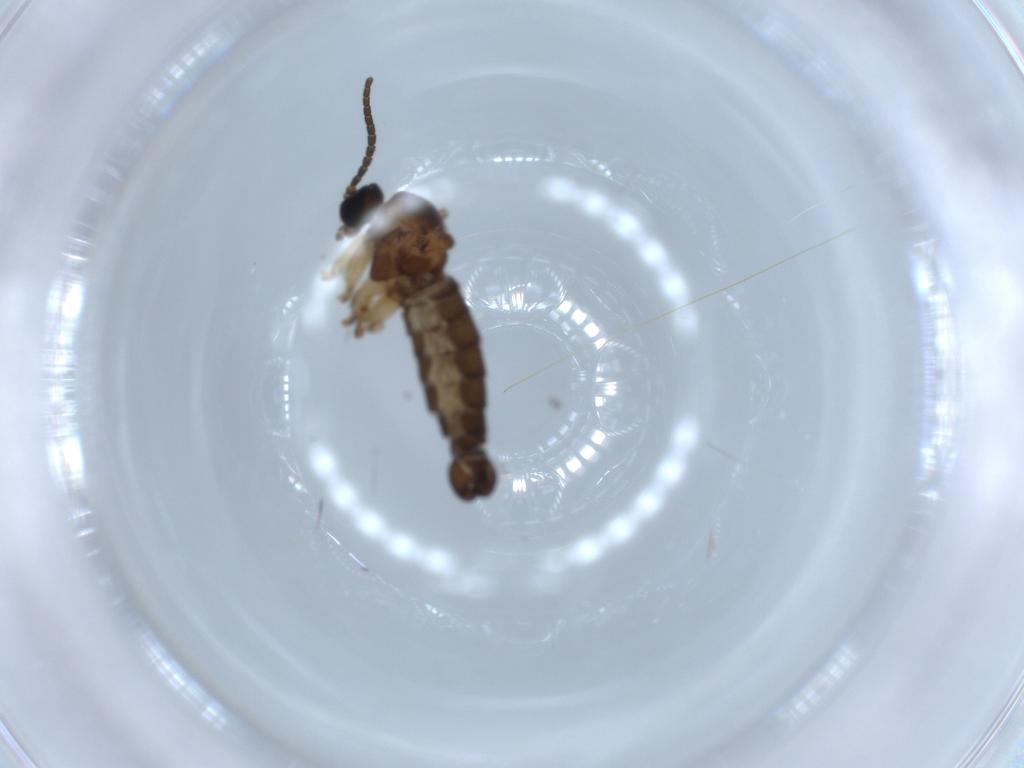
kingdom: Animalia
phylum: Arthropoda
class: Insecta
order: Diptera
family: Sciaridae
